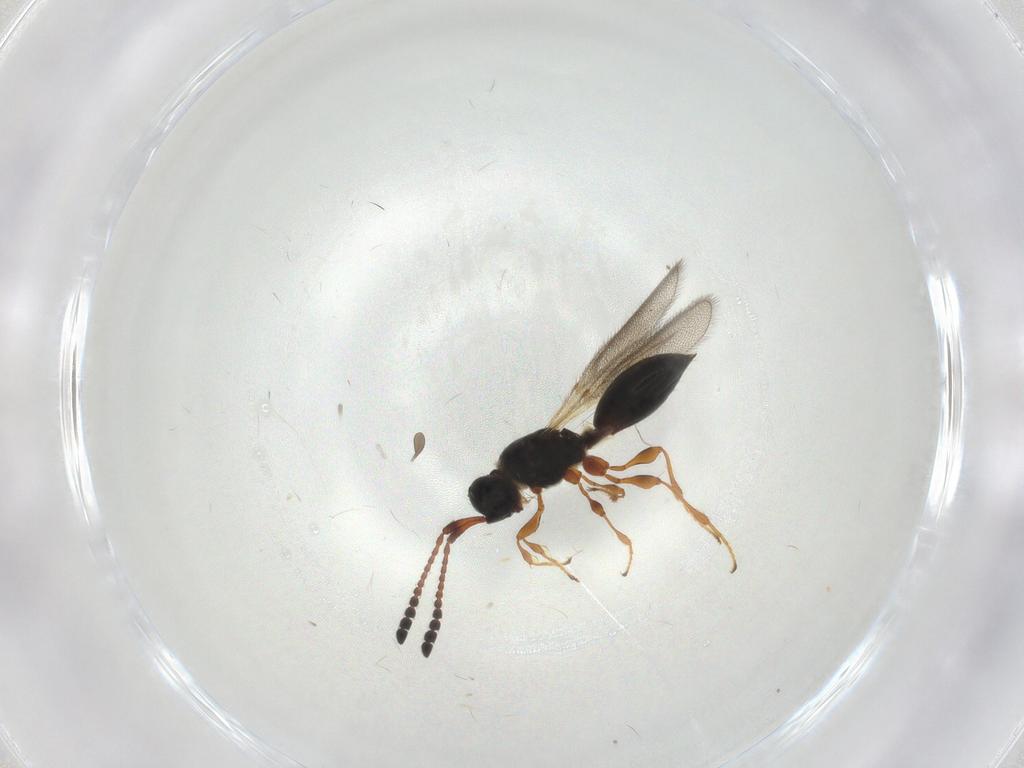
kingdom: Animalia
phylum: Arthropoda
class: Insecta
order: Hymenoptera
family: Diapriidae
